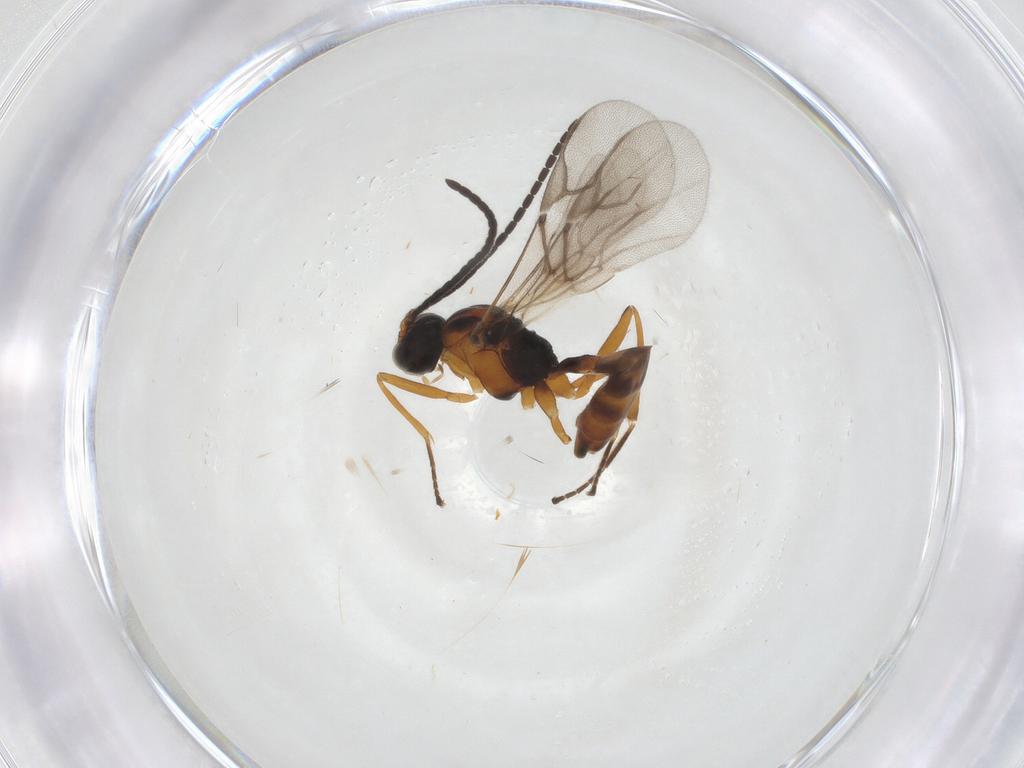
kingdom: Animalia
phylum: Arthropoda
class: Insecta
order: Hymenoptera
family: Braconidae
